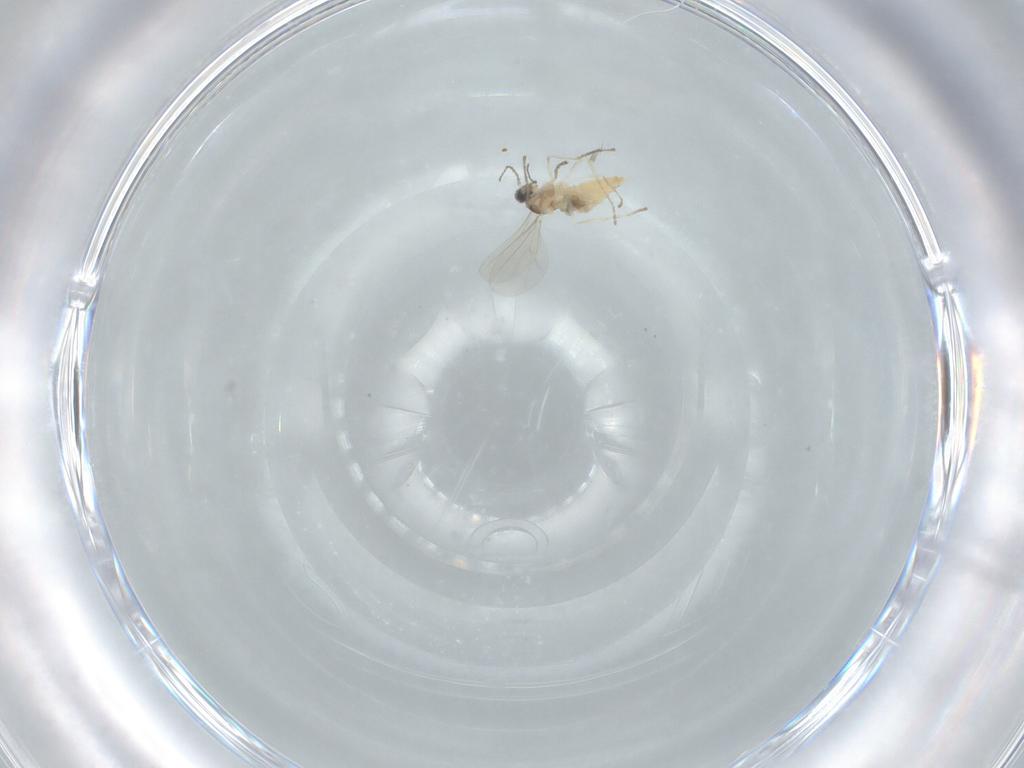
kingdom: Animalia
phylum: Arthropoda
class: Insecta
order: Diptera
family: Cecidomyiidae
